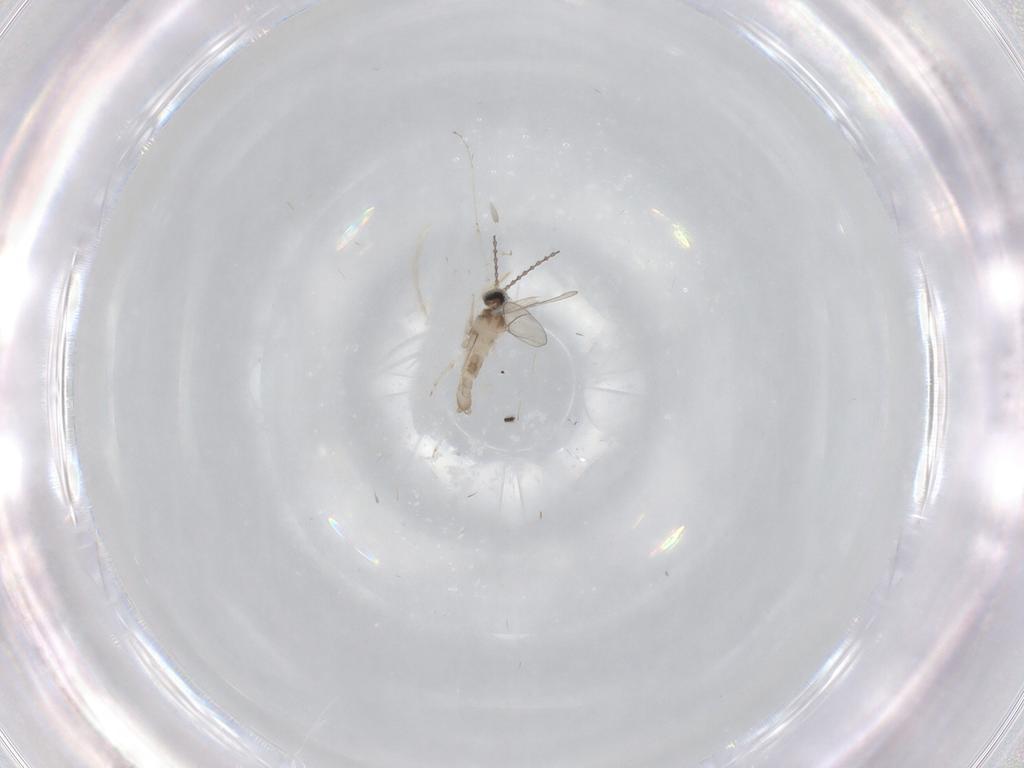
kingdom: Animalia
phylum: Arthropoda
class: Insecta
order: Diptera
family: Cecidomyiidae
